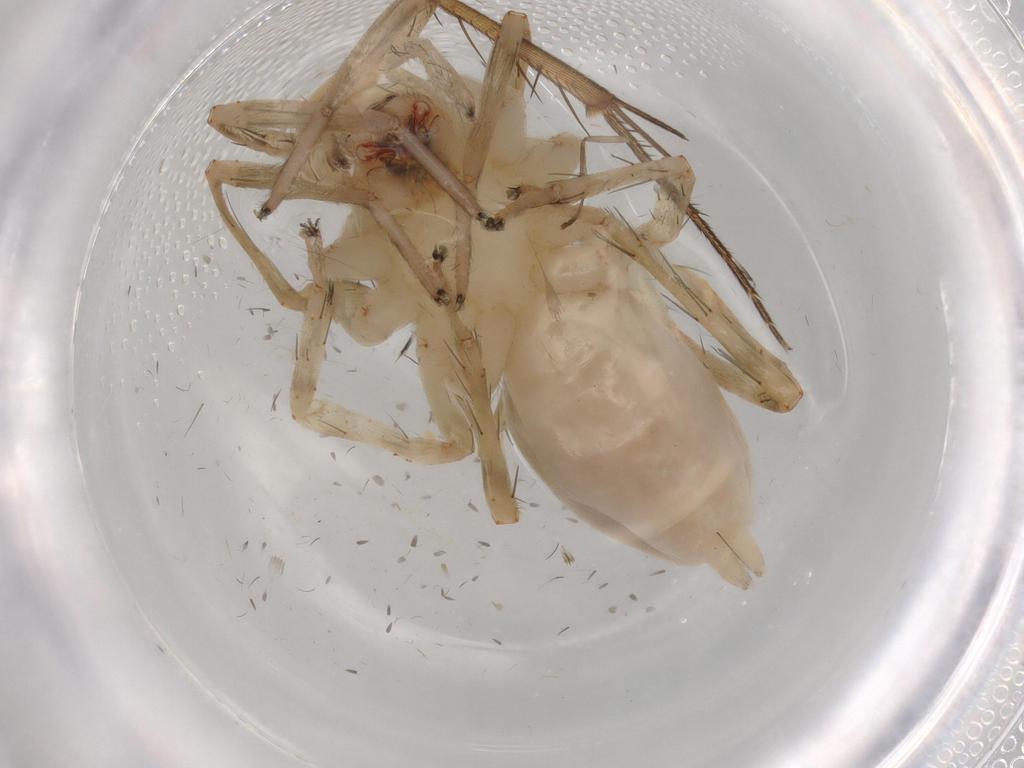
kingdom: Animalia
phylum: Arthropoda
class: Arachnida
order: Araneae
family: Anyphaenidae
